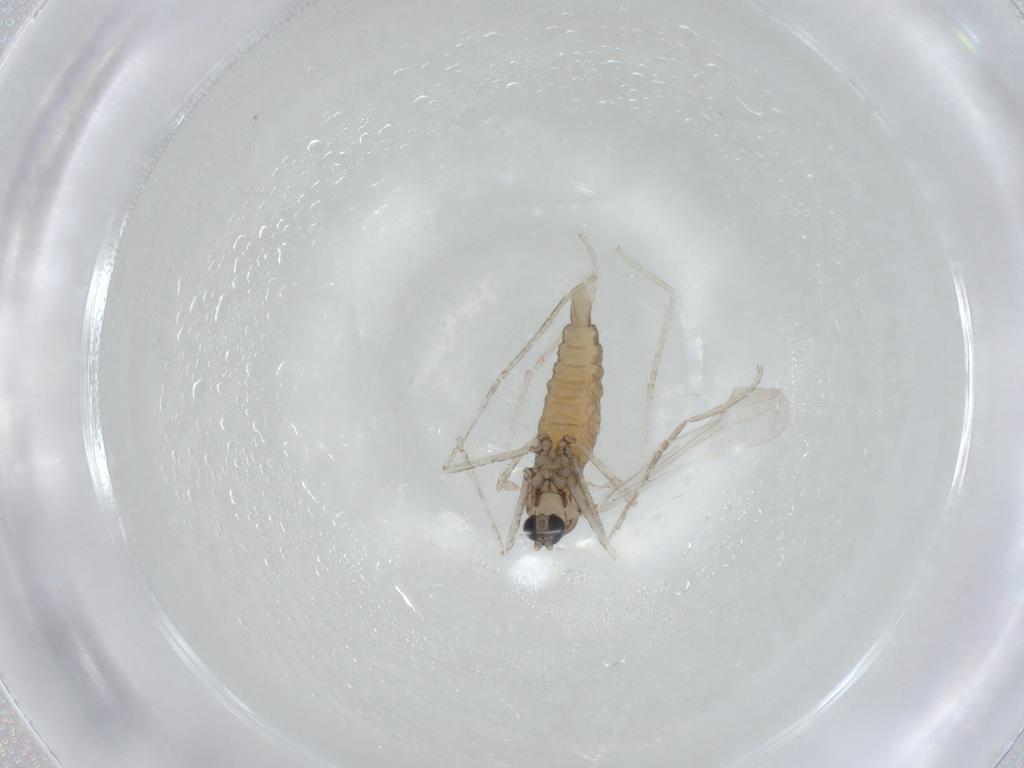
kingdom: Animalia
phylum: Arthropoda
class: Insecta
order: Diptera
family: Cecidomyiidae
